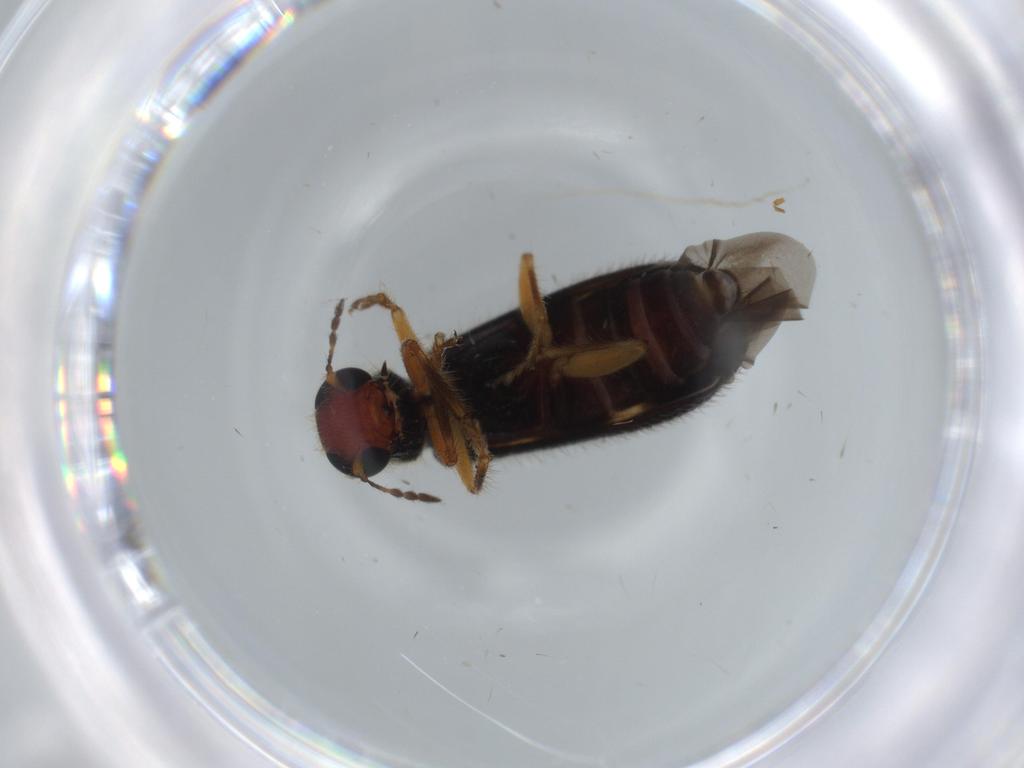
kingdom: Animalia
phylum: Arthropoda
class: Insecta
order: Coleoptera
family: Cleridae
